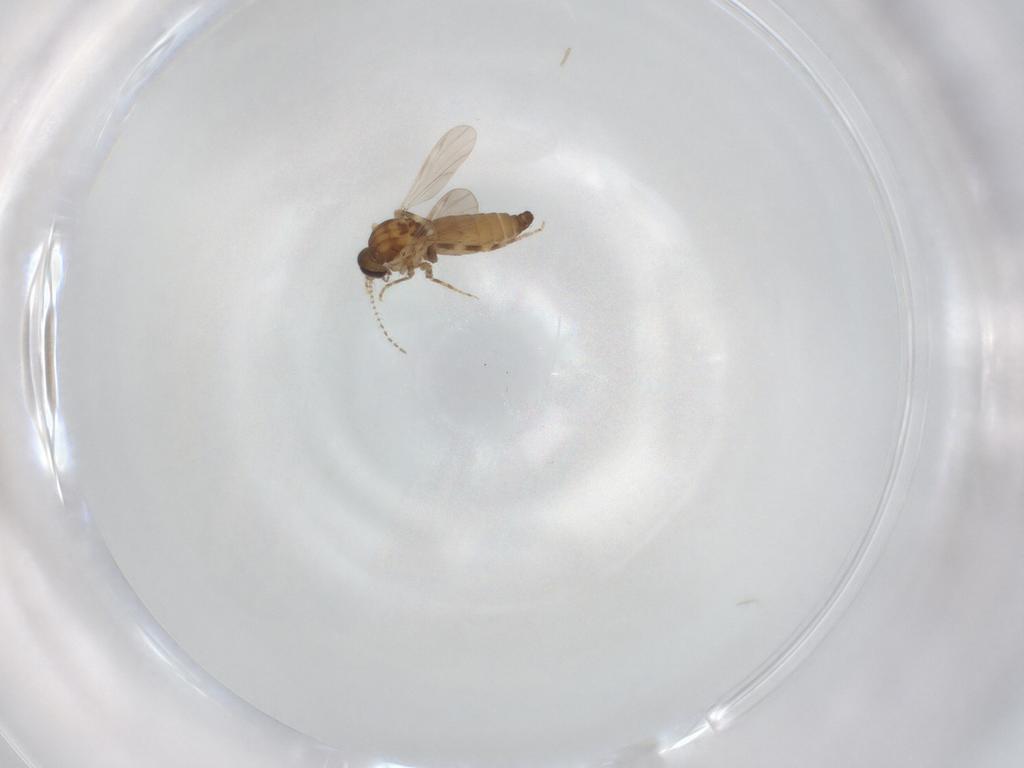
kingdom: Animalia
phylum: Arthropoda
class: Insecta
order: Diptera
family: Ceratopogonidae
